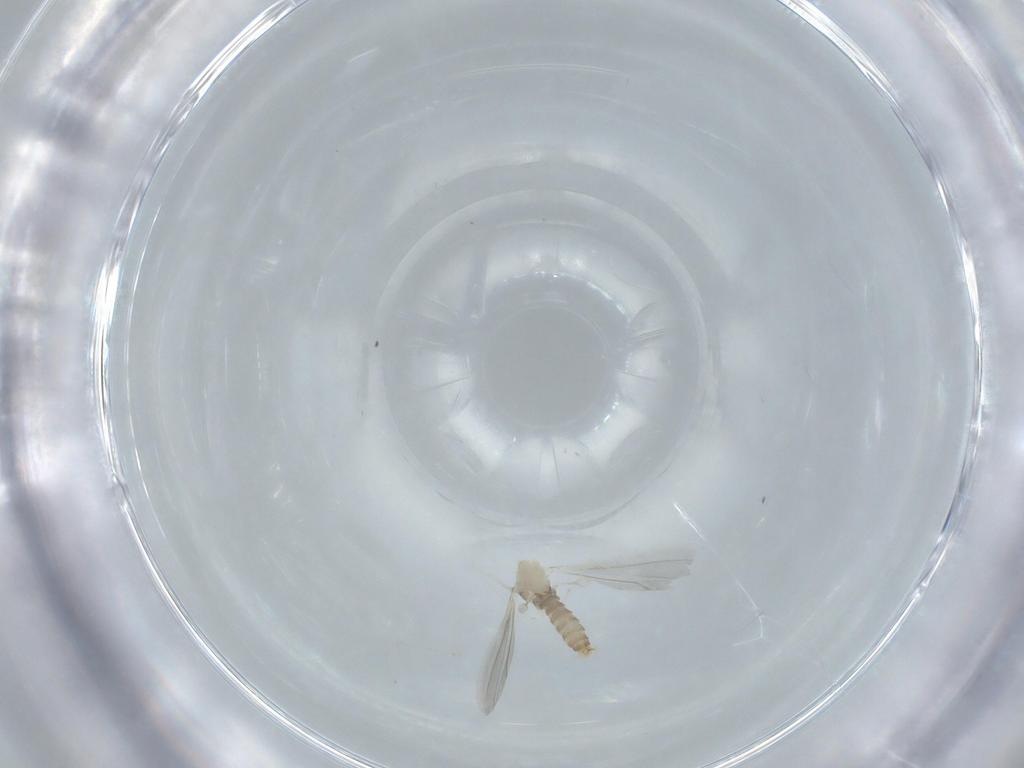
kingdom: Animalia
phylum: Arthropoda
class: Insecta
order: Diptera
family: Cecidomyiidae
